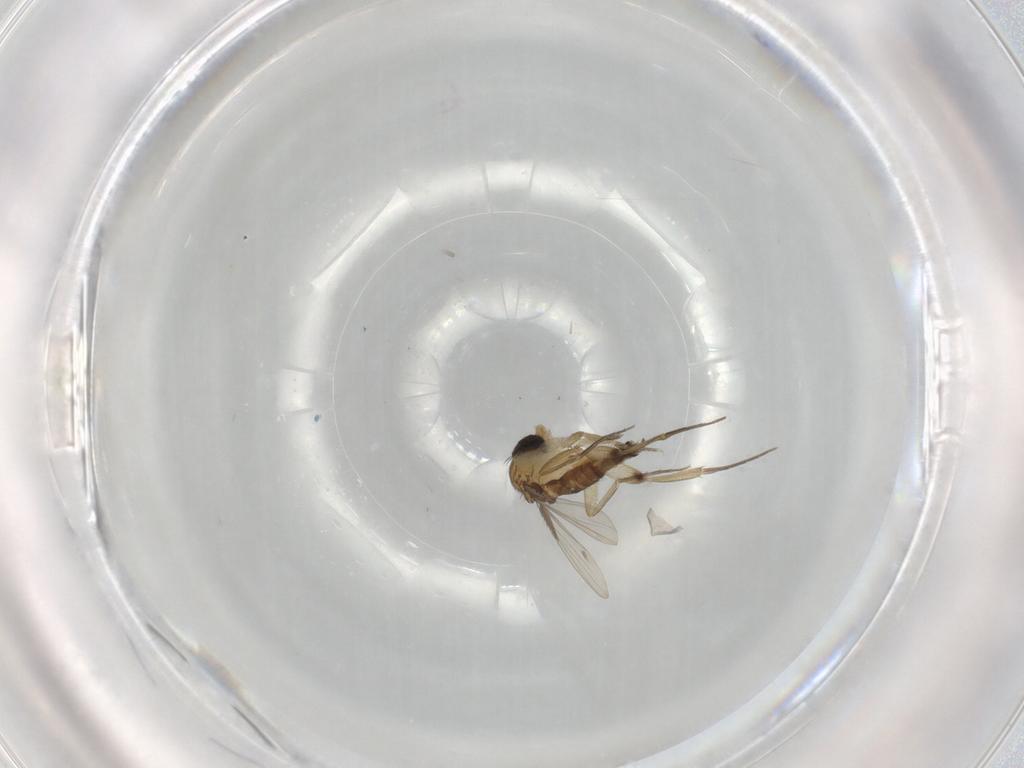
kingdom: Animalia
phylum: Arthropoda
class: Insecta
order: Diptera
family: Phoridae
